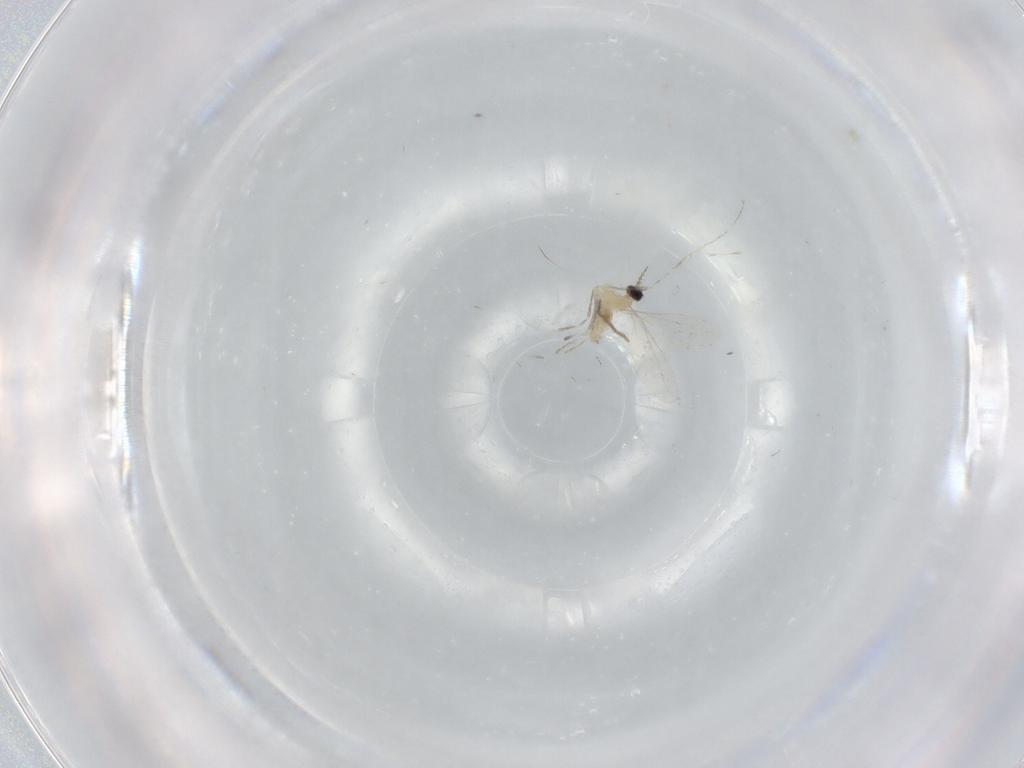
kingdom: Animalia
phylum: Arthropoda
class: Insecta
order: Diptera
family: Cecidomyiidae
